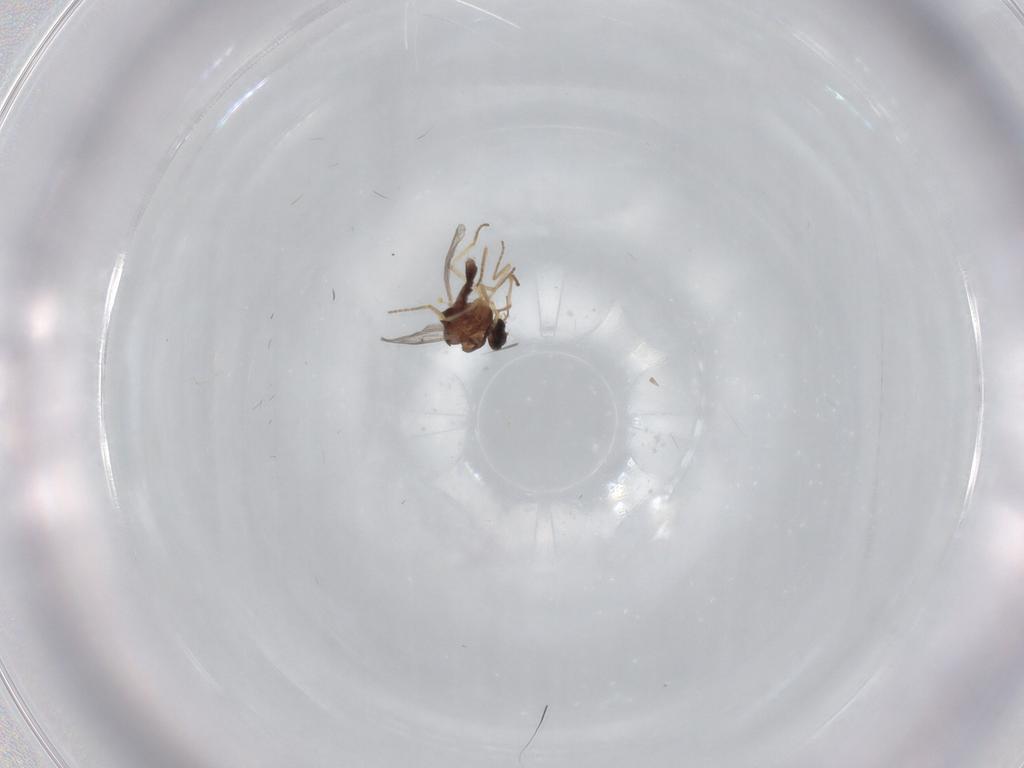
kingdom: Animalia
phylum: Arthropoda
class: Insecta
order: Diptera
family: Ceratopogonidae
